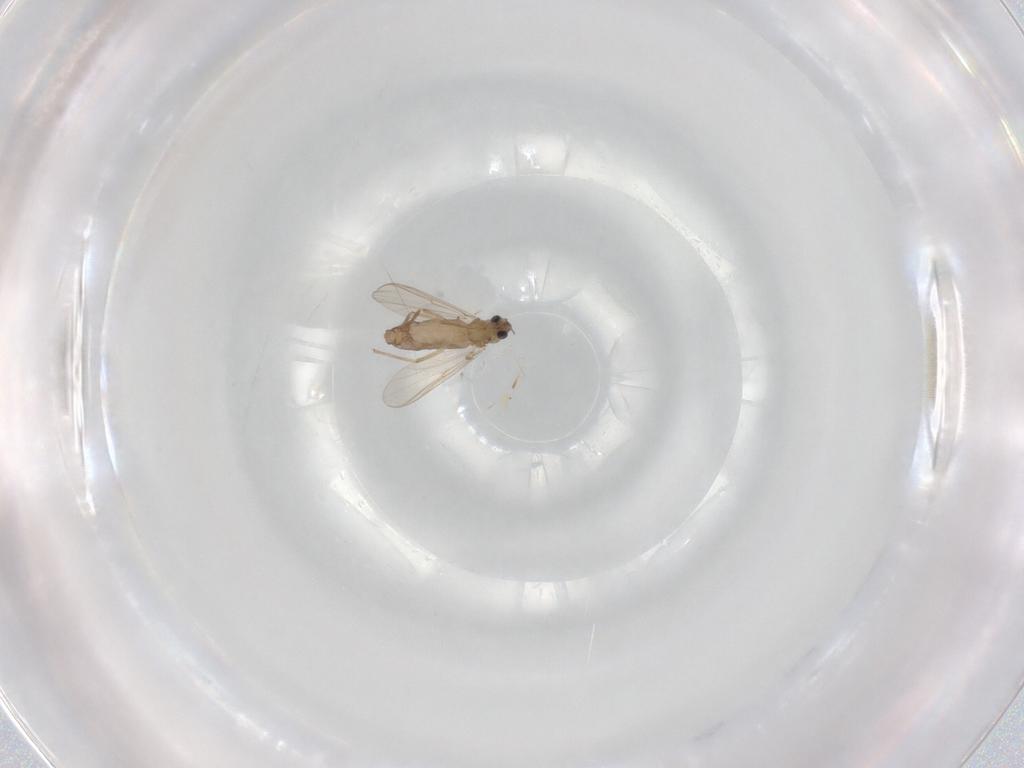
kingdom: Animalia
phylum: Arthropoda
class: Insecta
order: Diptera
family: Chironomidae
